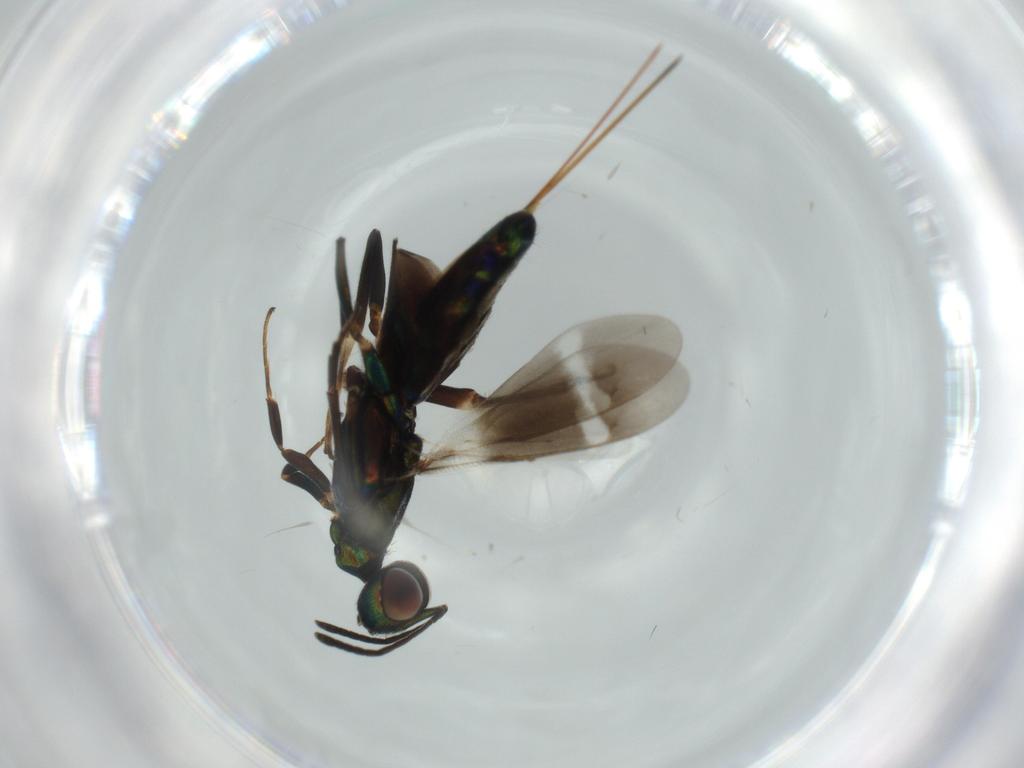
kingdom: Animalia
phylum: Arthropoda
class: Insecta
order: Hymenoptera
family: Eupelmidae
